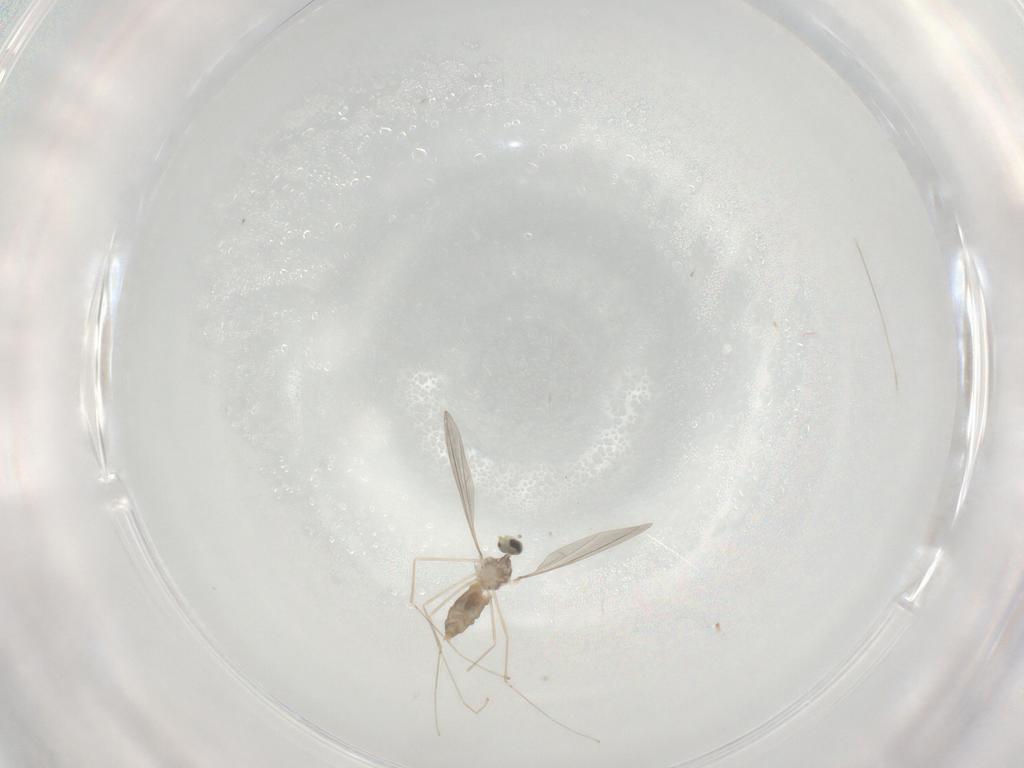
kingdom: Animalia
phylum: Arthropoda
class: Insecta
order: Diptera
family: Cecidomyiidae
